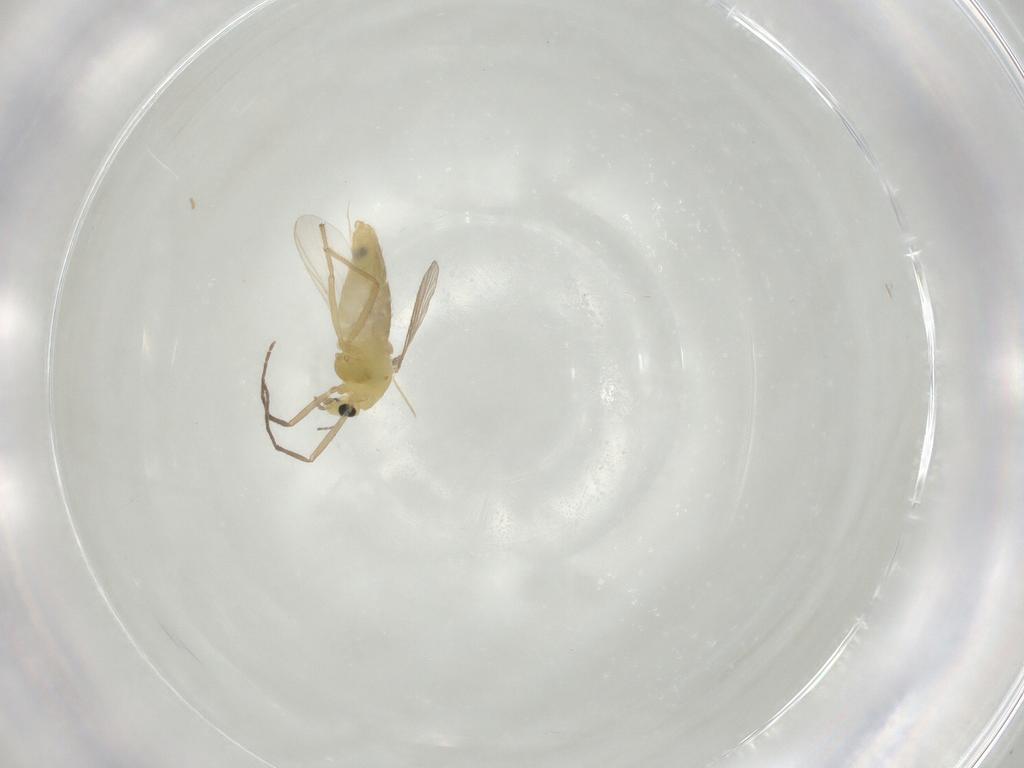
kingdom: Animalia
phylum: Arthropoda
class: Insecta
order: Diptera
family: Chironomidae
